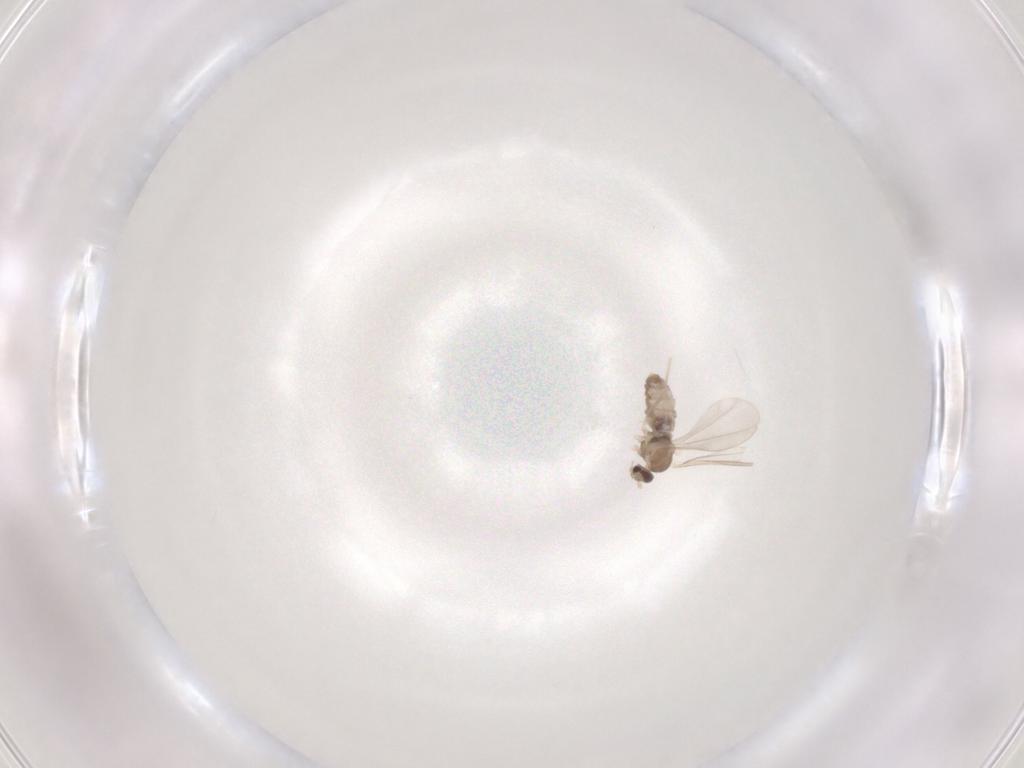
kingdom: Animalia
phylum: Arthropoda
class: Insecta
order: Diptera
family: Cecidomyiidae
